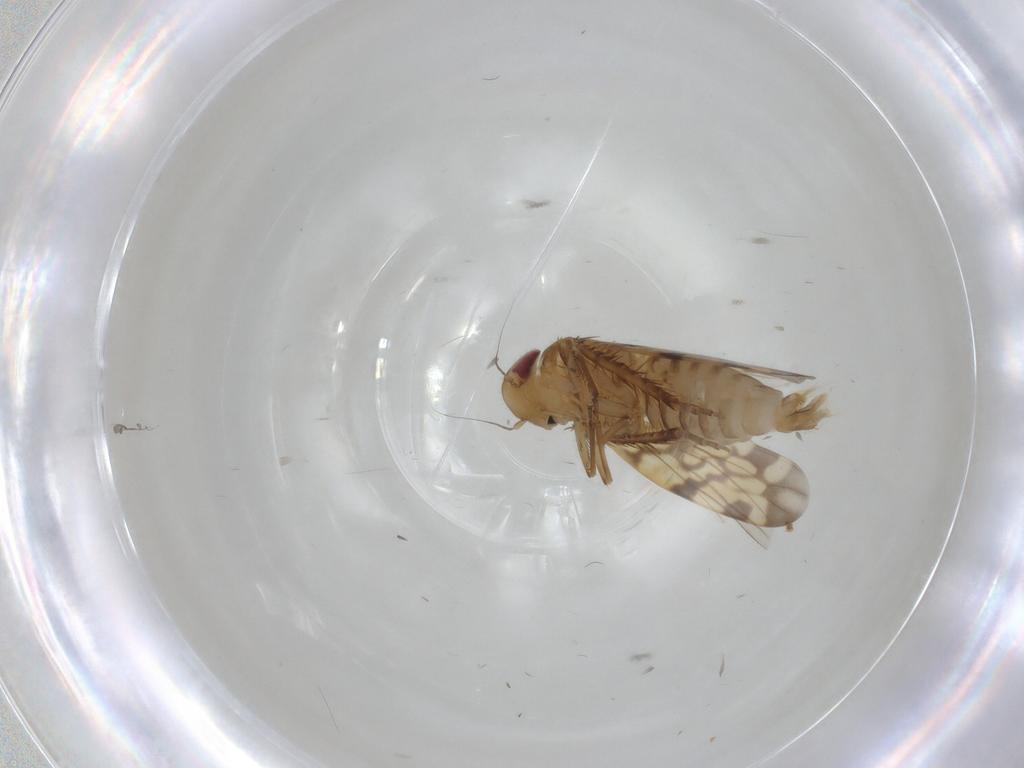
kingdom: Animalia
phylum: Arthropoda
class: Insecta
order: Hemiptera
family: Cicadellidae
